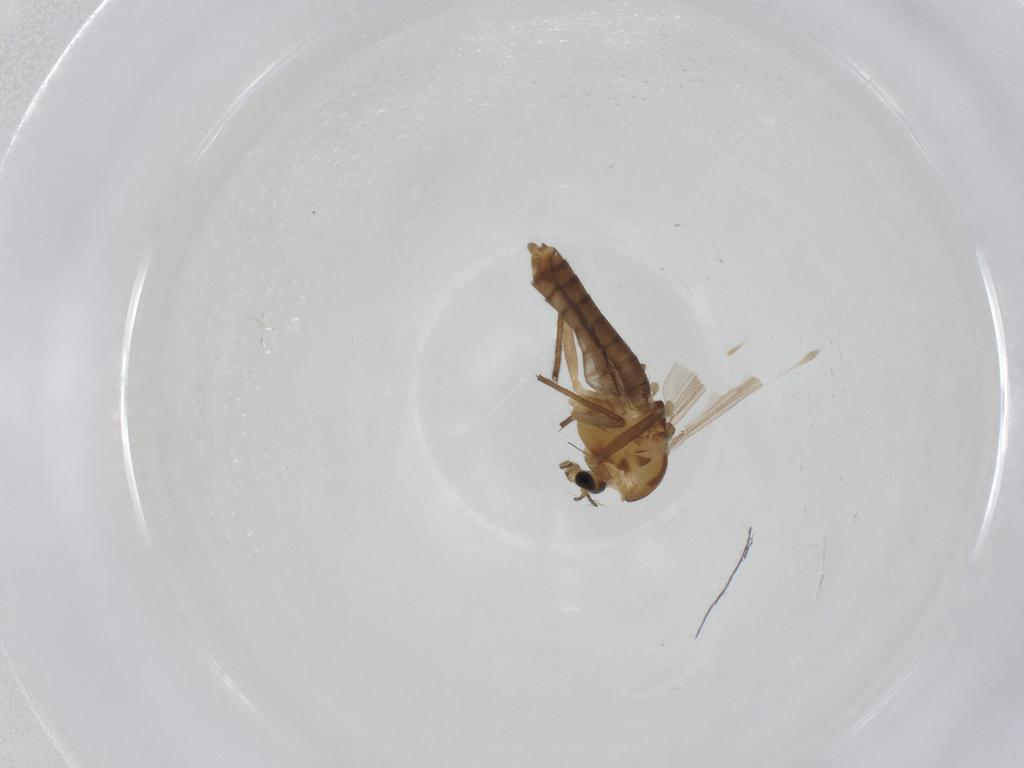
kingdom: Animalia
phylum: Arthropoda
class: Insecta
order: Diptera
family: Chironomidae
